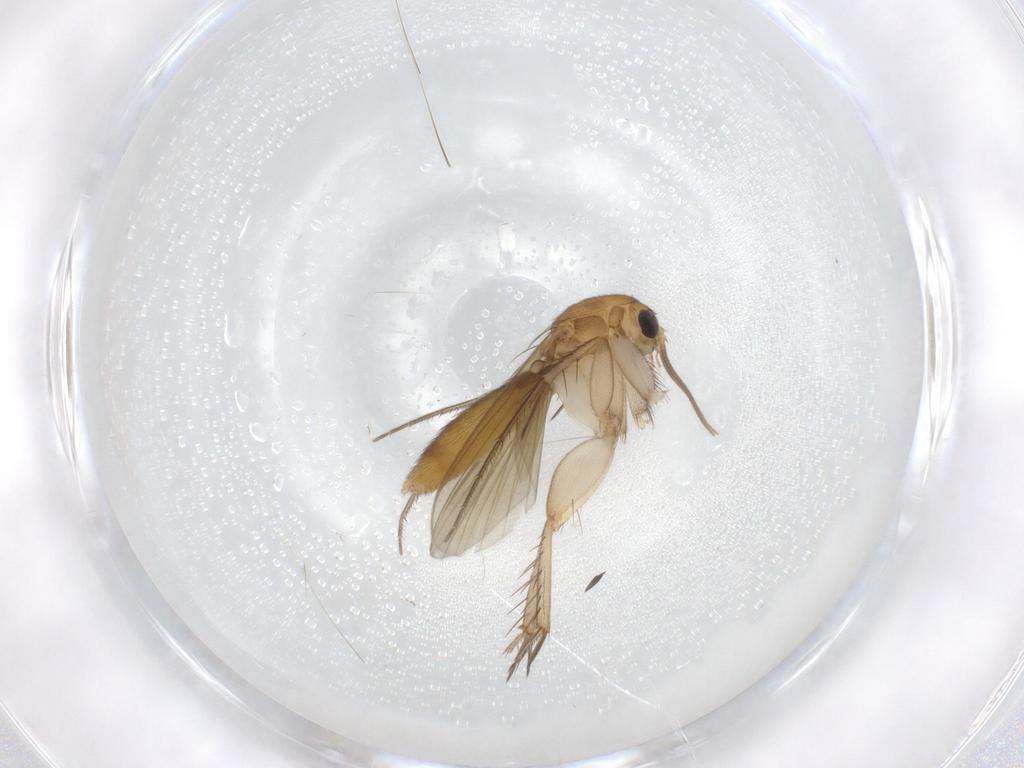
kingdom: Animalia
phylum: Arthropoda
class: Insecta
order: Diptera
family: Mycetophilidae
